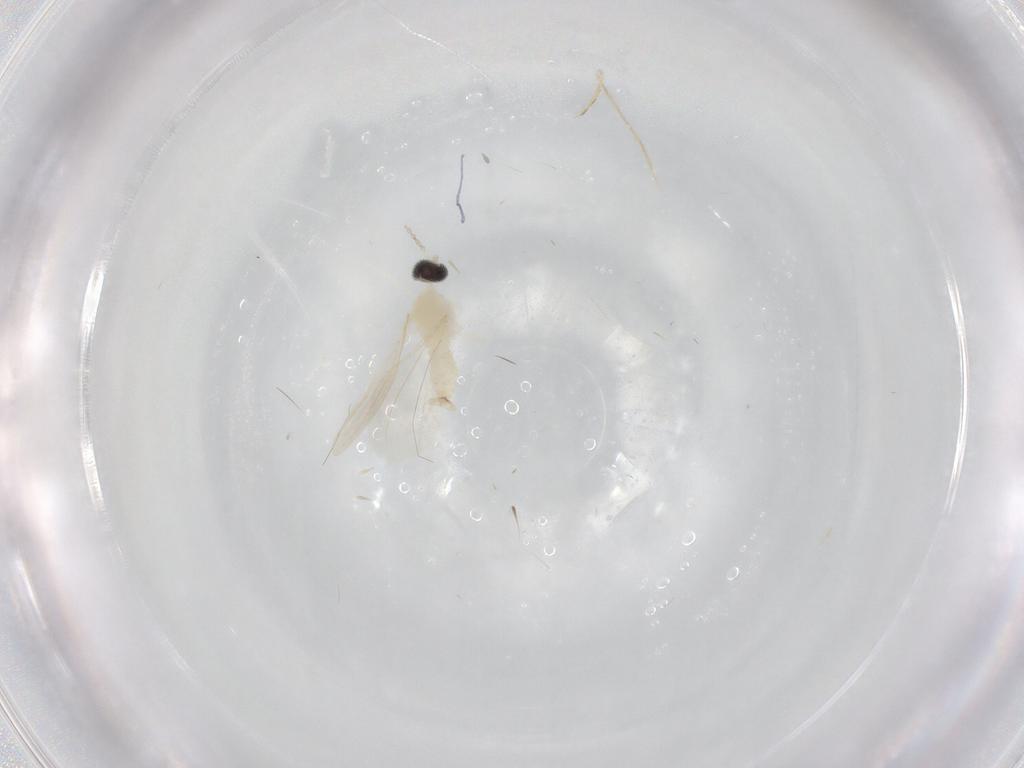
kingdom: Animalia
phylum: Arthropoda
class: Insecta
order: Diptera
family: Cecidomyiidae
